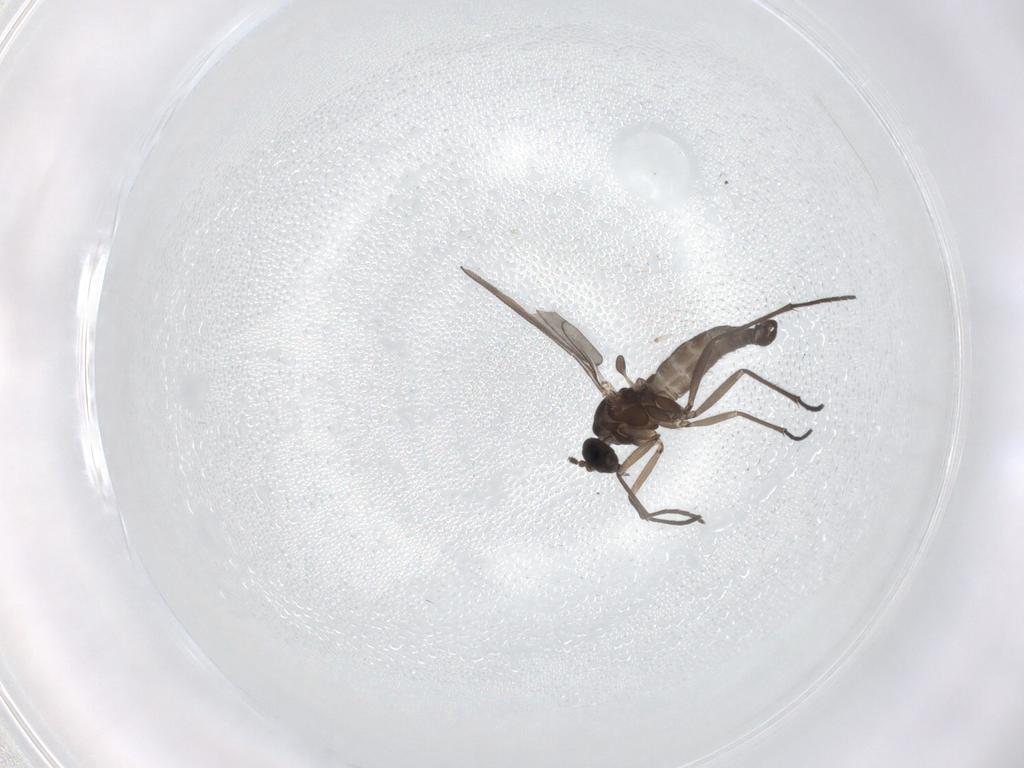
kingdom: Animalia
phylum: Arthropoda
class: Insecta
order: Diptera
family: Sciaridae
